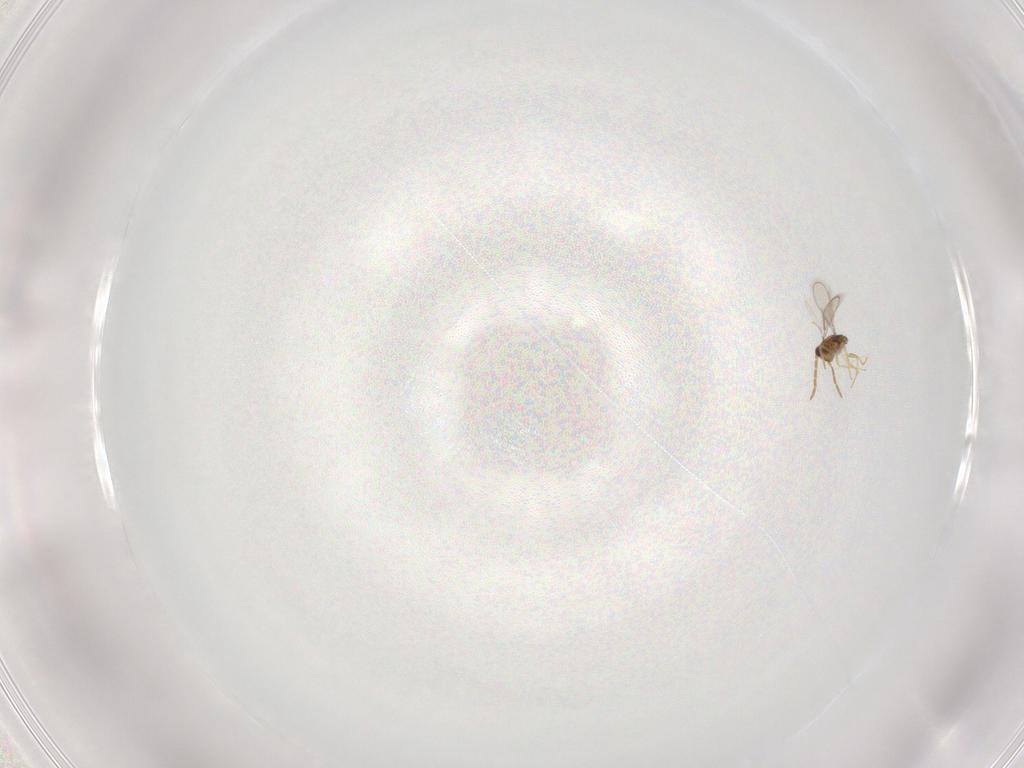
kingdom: Animalia
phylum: Arthropoda
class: Insecta
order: Hymenoptera
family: Aphelinidae
